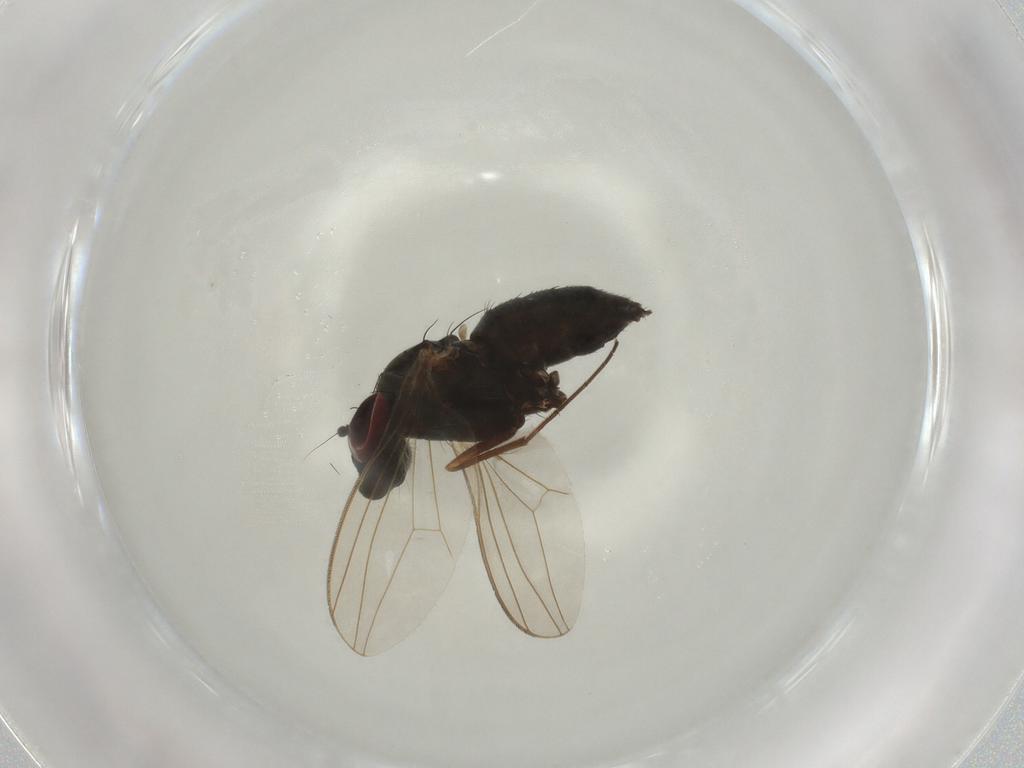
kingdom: Animalia
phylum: Arthropoda
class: Insecta
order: Diptera
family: Dolichopodidae
